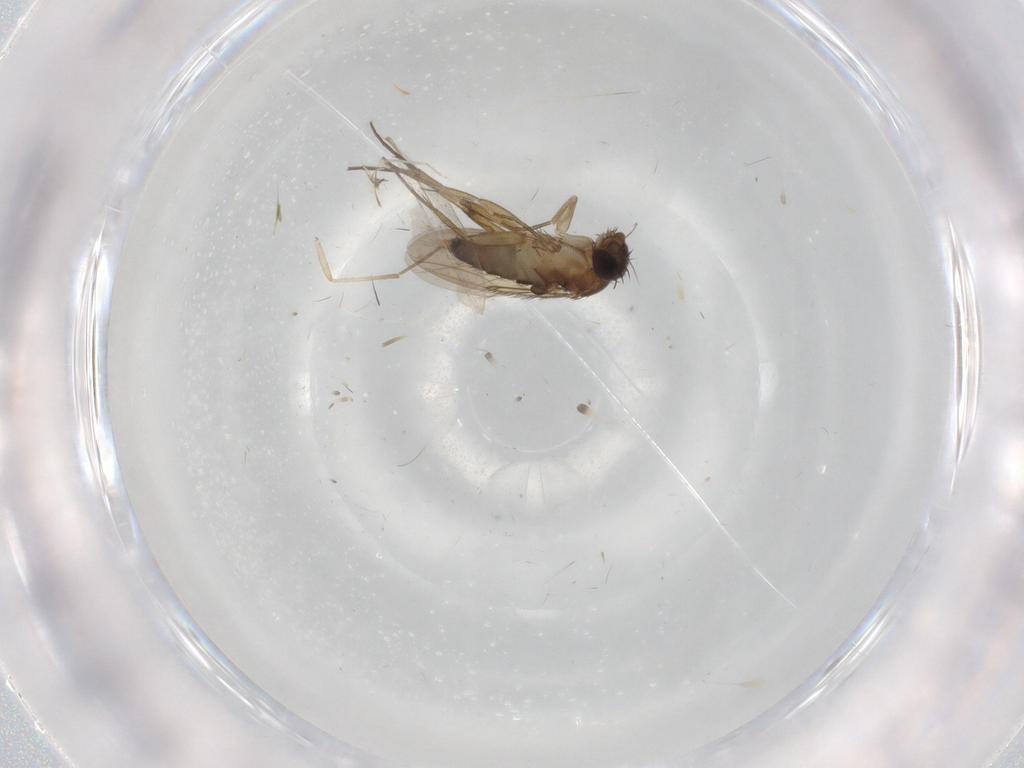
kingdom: Animalia
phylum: Arthropoda
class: Insecta
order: Diptera
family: Phoridae
